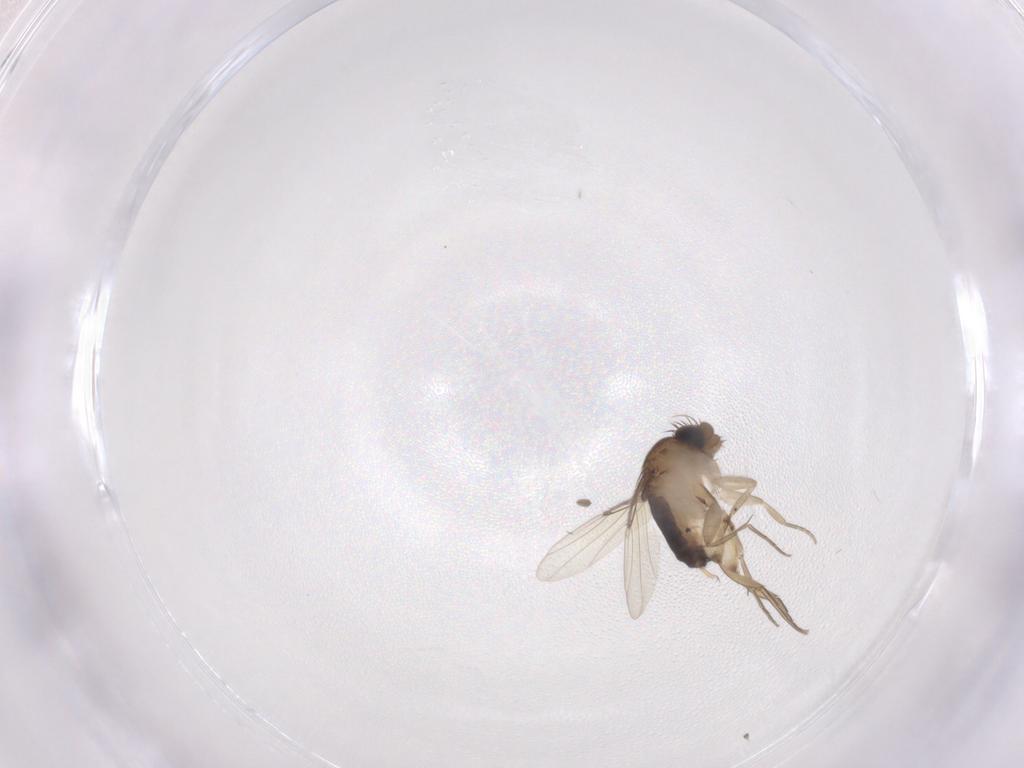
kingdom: Animalia
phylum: Arthropoda
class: Insecta
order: Diptera
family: Phoridae
